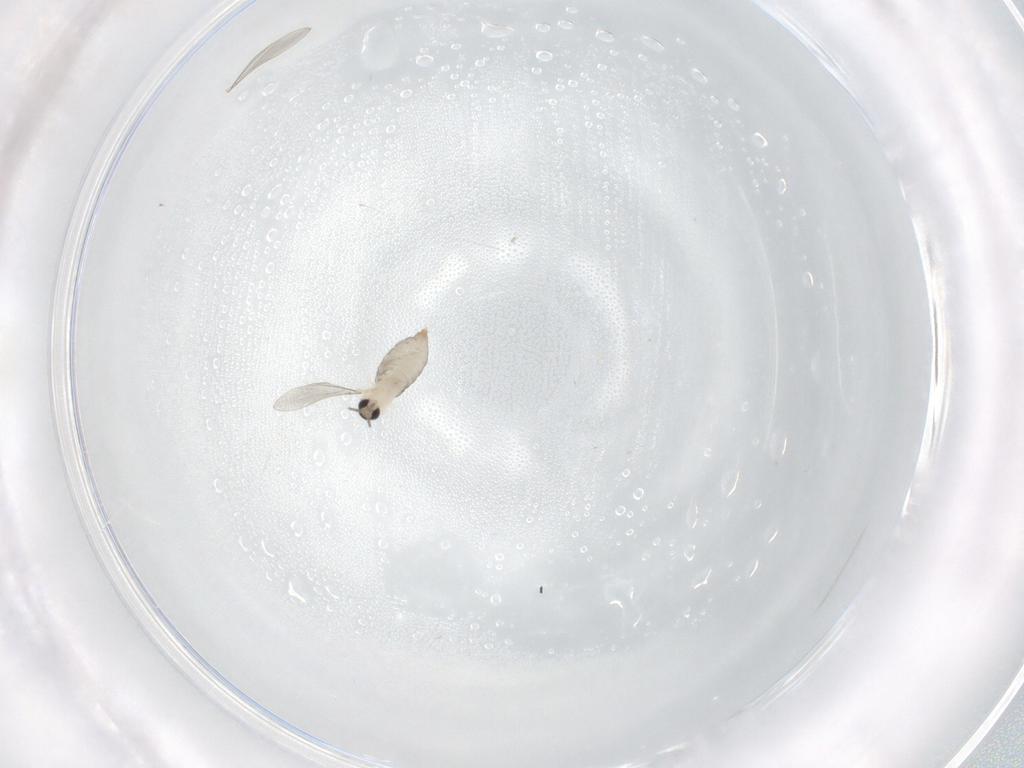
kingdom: Animalia
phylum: Arthropoda
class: Insecta
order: Diptera
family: Cecidomyiidae
